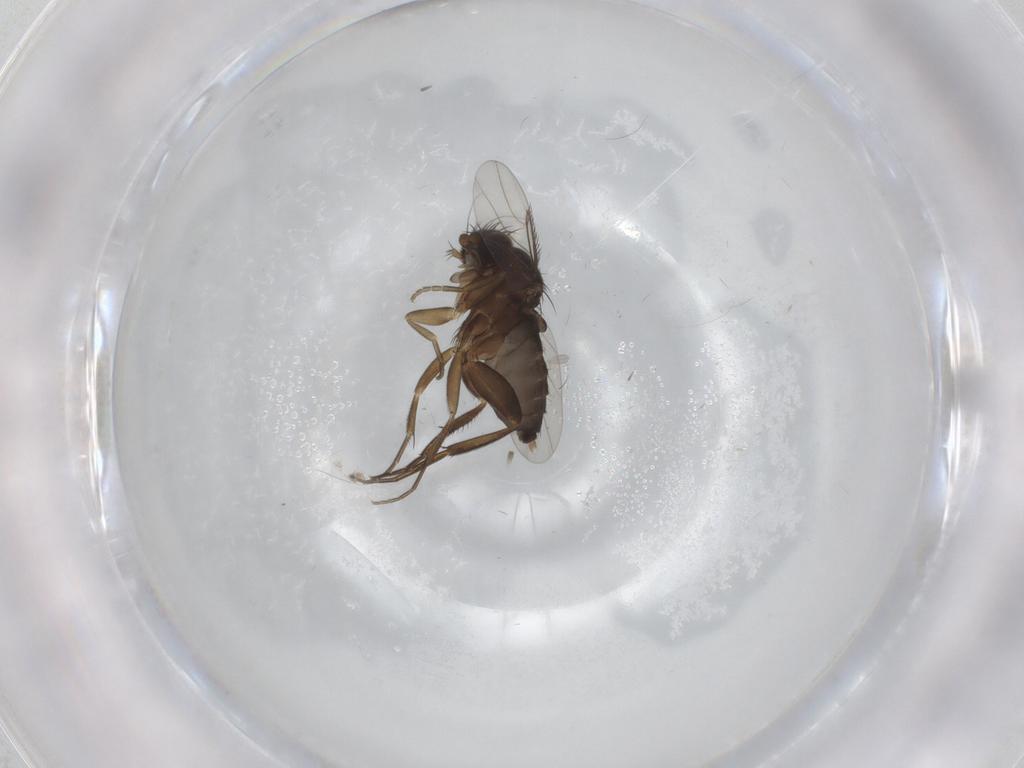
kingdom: Animalia
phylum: Arthropoda
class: Insecta
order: Diptera
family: Phoridae
